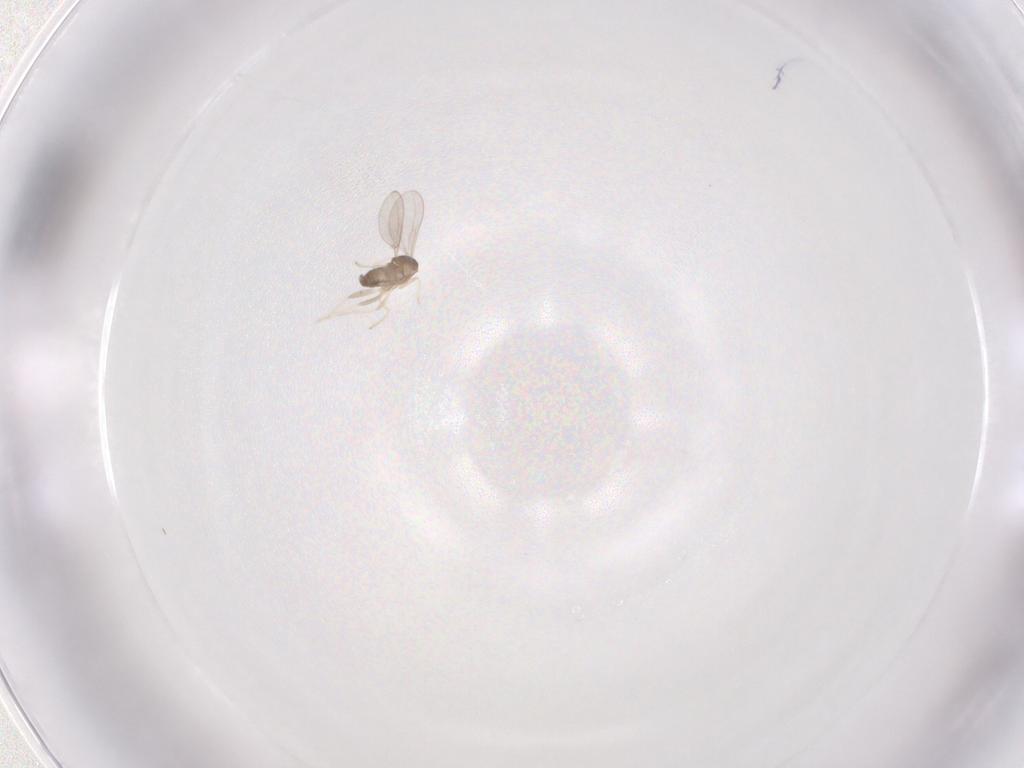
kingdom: Animalia
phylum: Arthropoda
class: Insecta
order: Diptera
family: Cecidomyiidae
